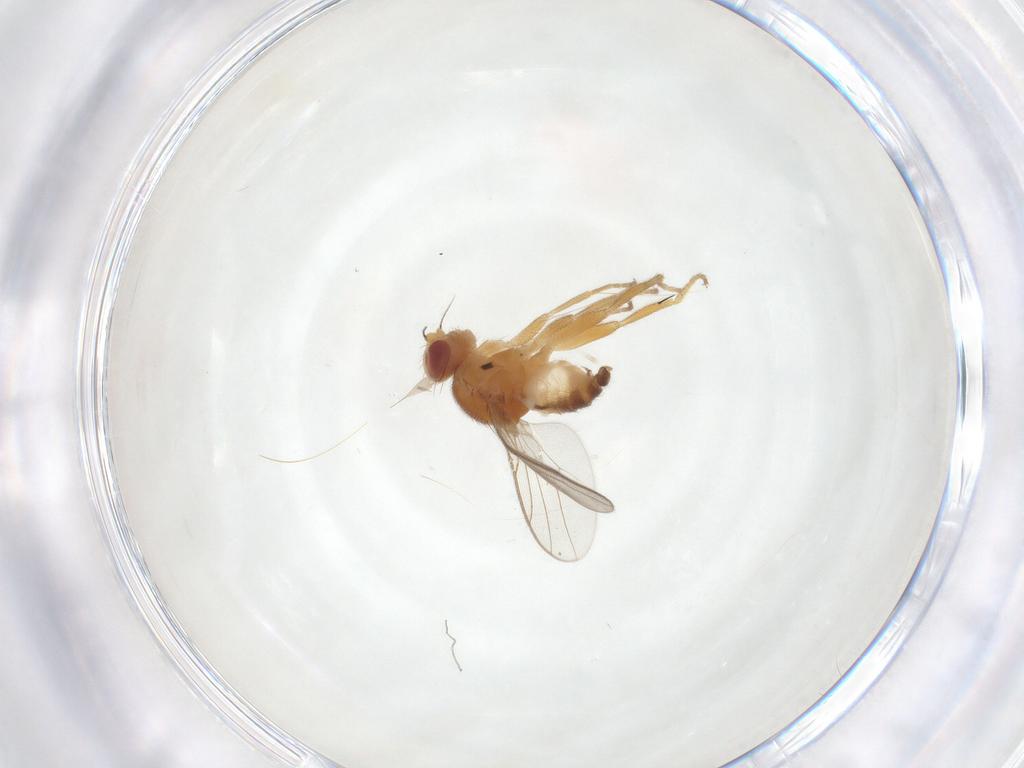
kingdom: Animalia
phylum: Arthropoda
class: Insecta
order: Diptera
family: Chloropidae
